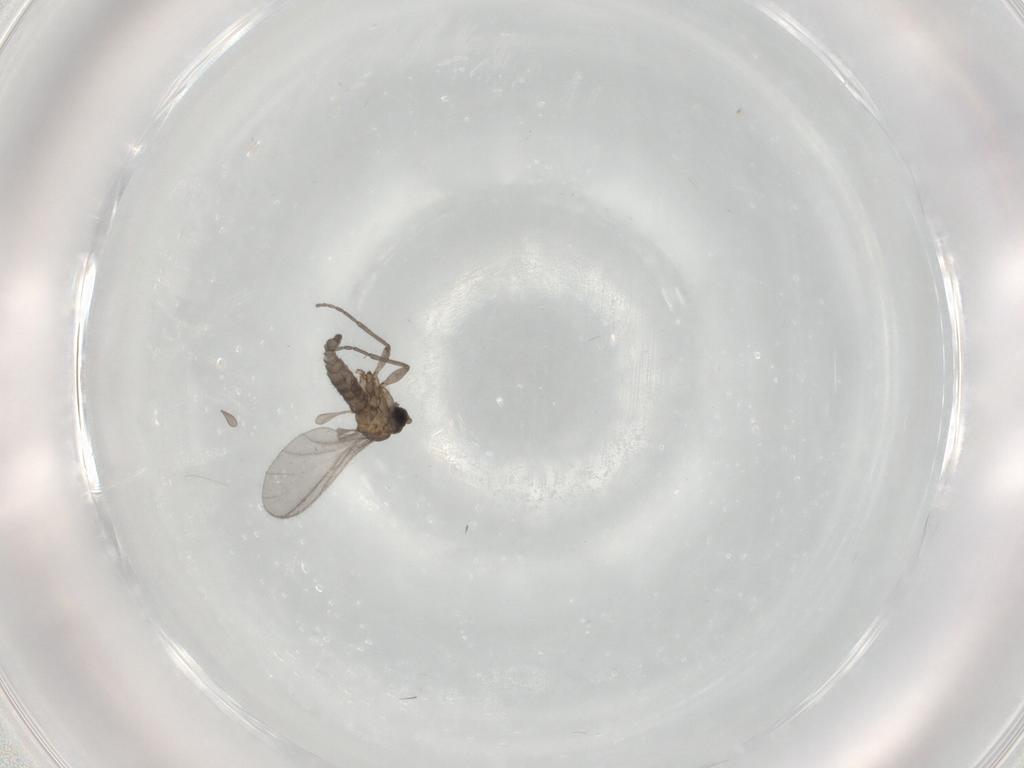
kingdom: Animalia
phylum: Arthropoda
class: Insecta
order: Diptera
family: Sciaridae
